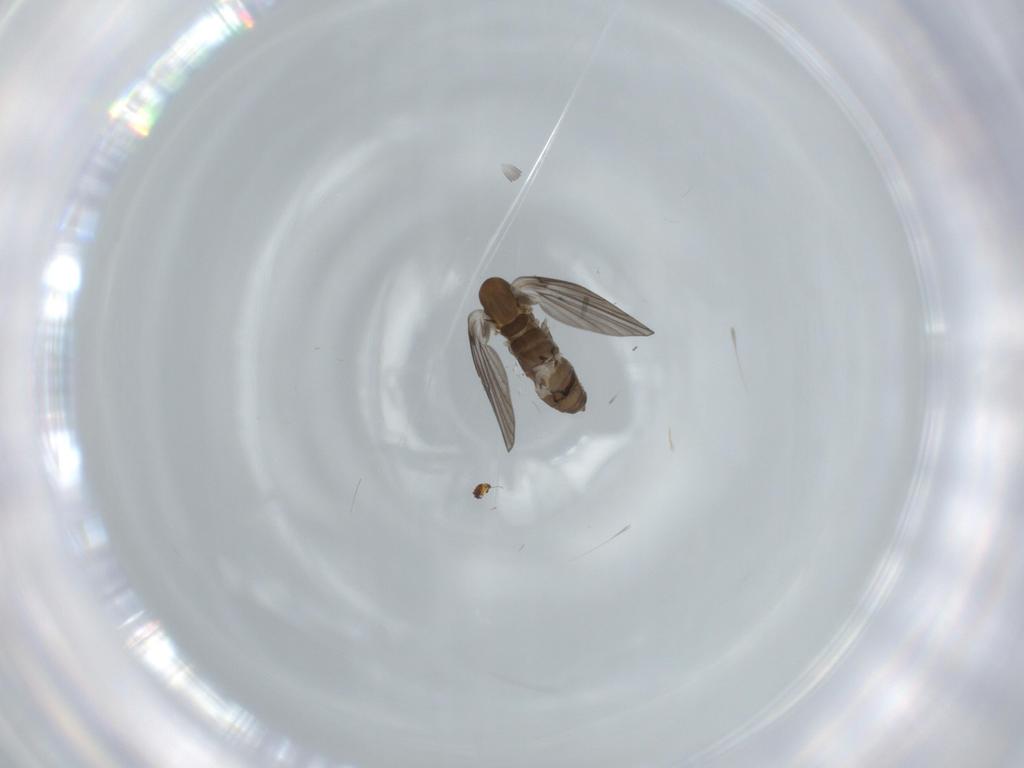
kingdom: Animalia
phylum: Arthropoda
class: Insecta
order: Diptera
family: Psychodidae
